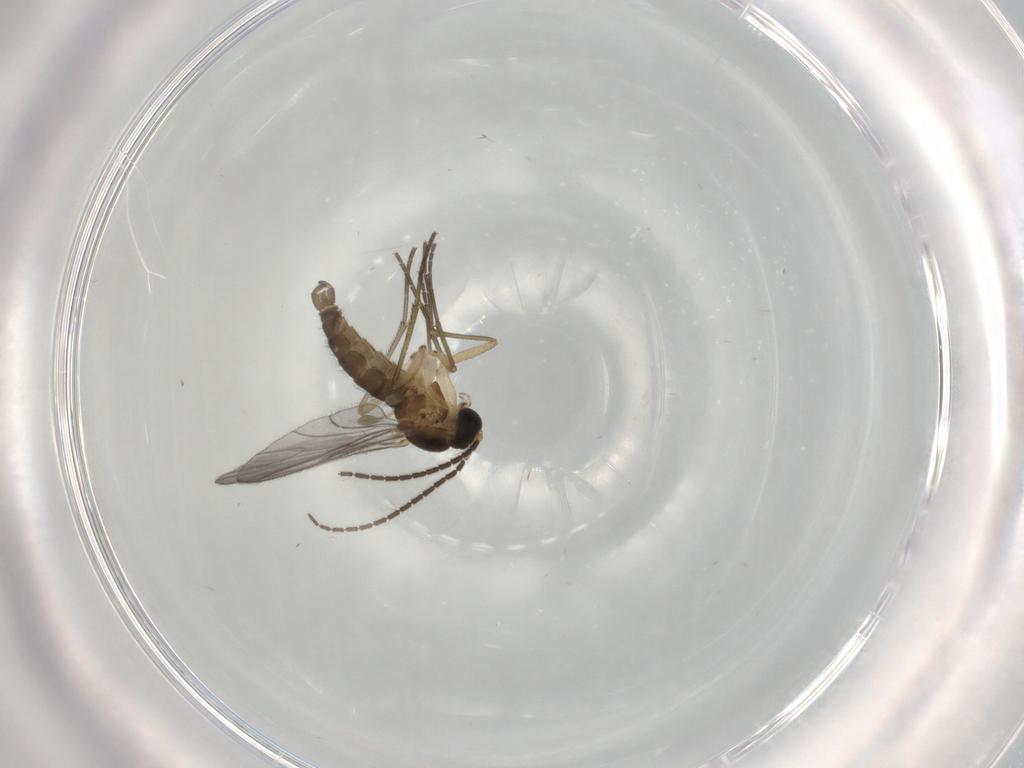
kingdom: Animalia
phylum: Arthropoda
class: Insecta
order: Diptera
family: Sciaridae
